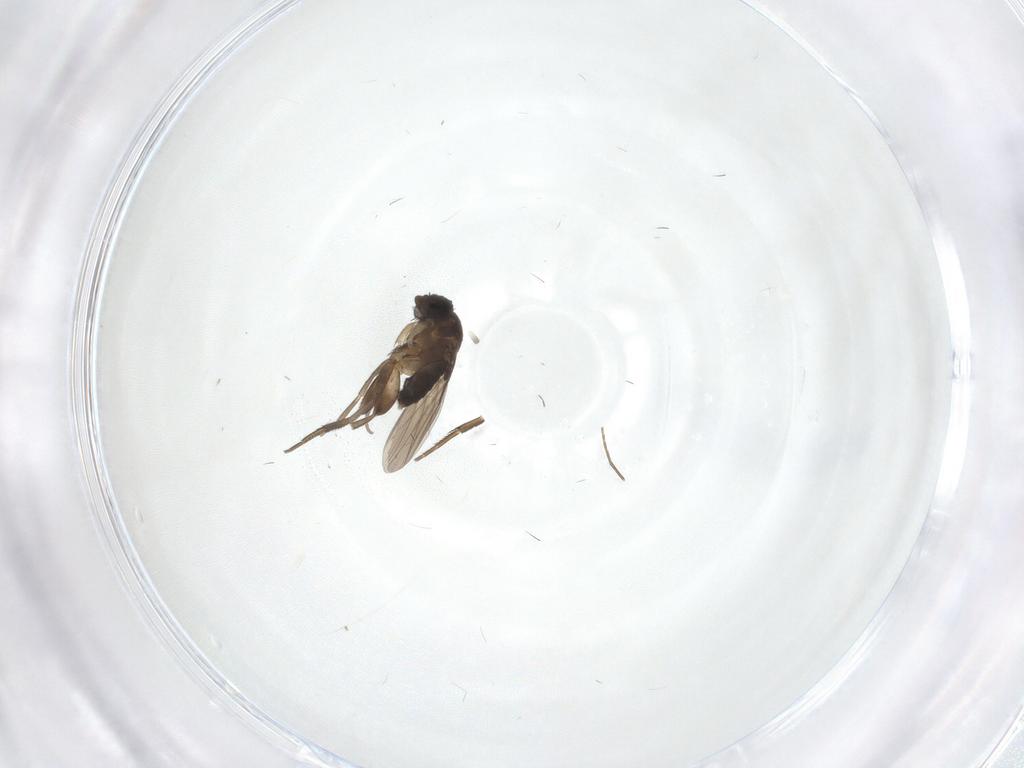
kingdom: Animalia
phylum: Arthropoda
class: Insecta
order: Diptera
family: Phoridae
